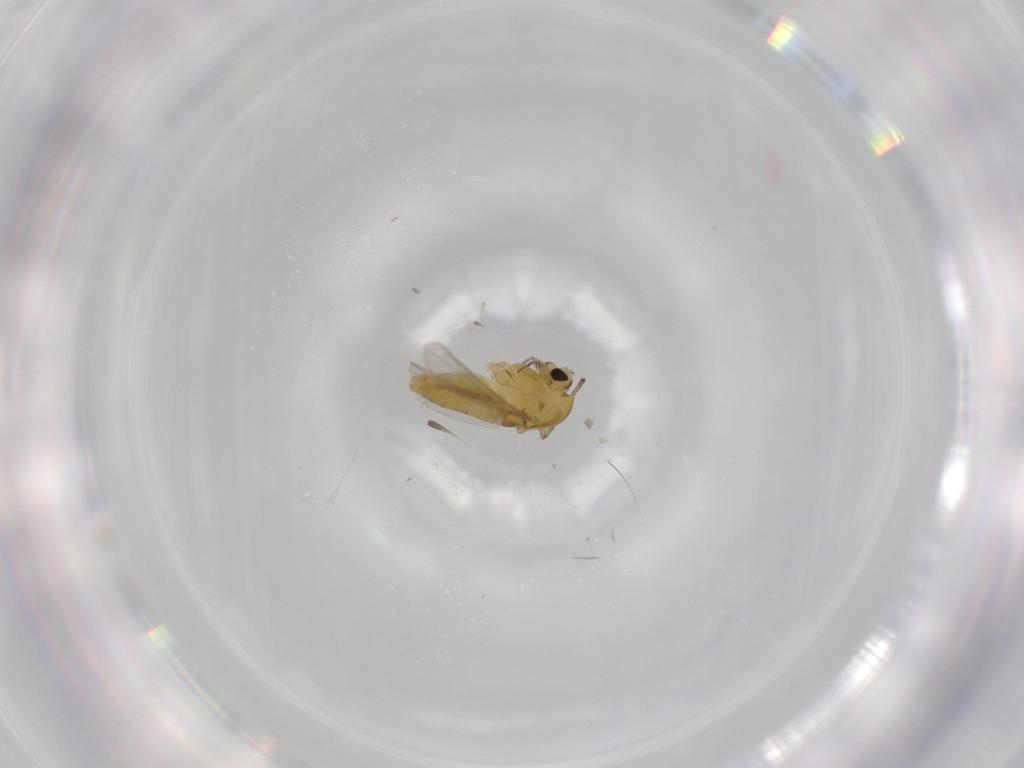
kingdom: Animalia
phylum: Arthropoda
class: Insecta
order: Diptera
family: Chironomidae
